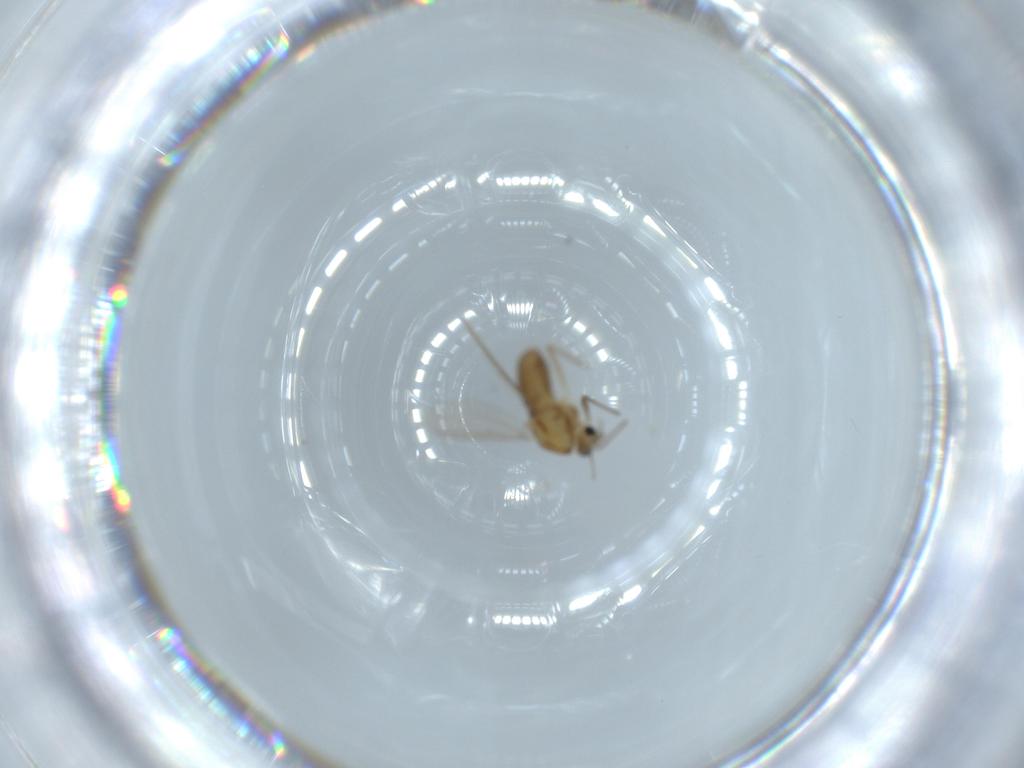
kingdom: Animalia
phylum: Arthropoda
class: Insecta
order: Diptera
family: Chironomidae
